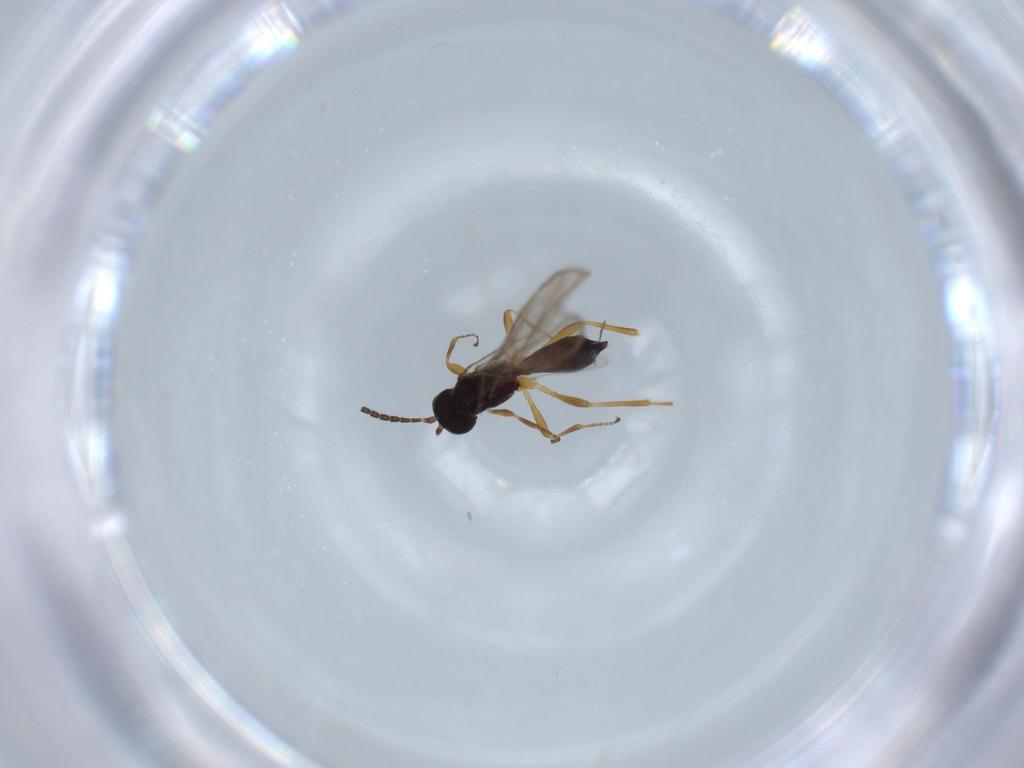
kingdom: Animalia
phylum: Arthropoda
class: Insecta
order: Hymenoptera
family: Braconidae
